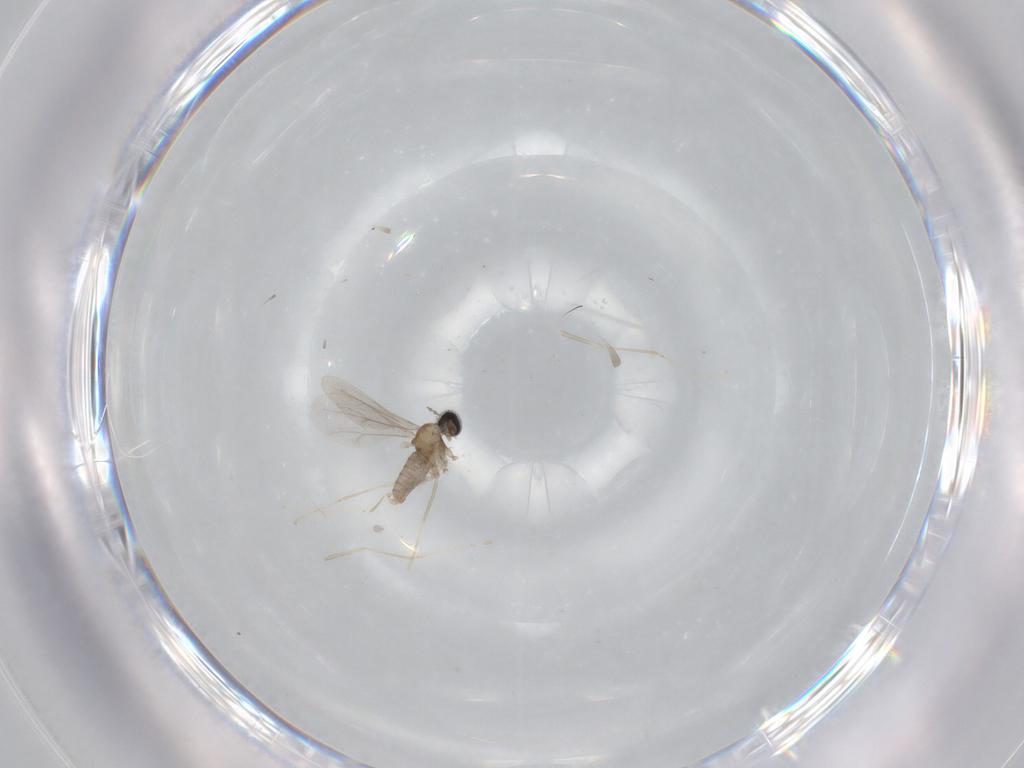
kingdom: Animalia
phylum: Arthropoda
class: Insecta
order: Diptera
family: Cecidomyiidae
